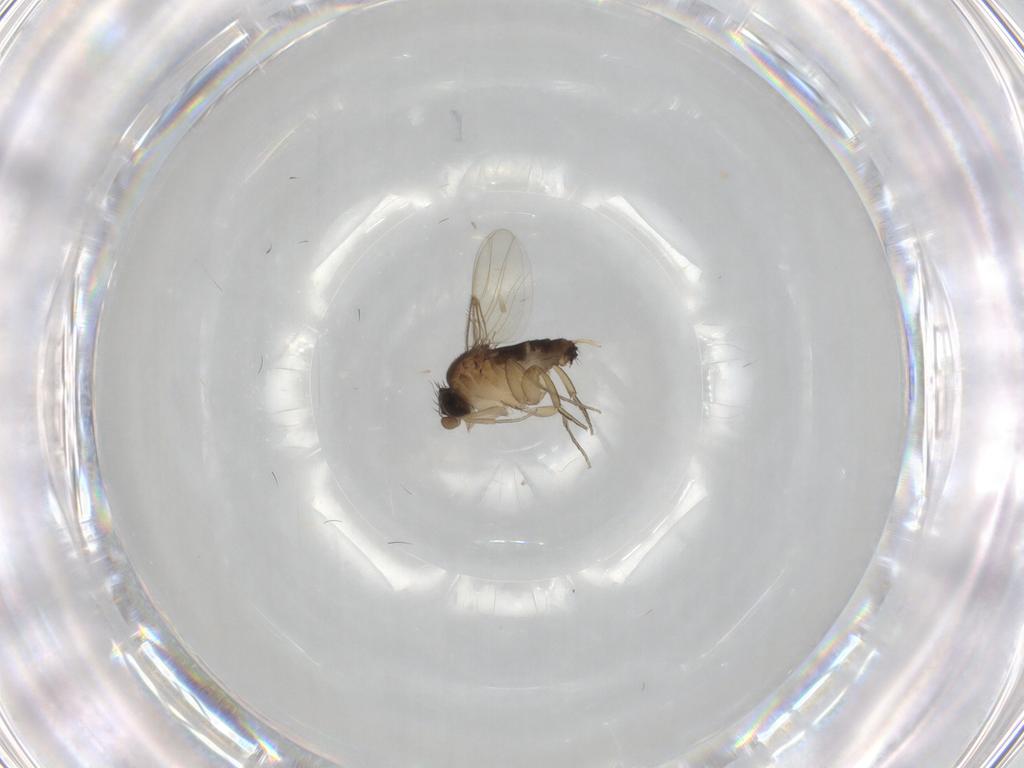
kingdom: Animalia
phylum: Arthropoda
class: Insecta
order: Diptera
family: Phoridae
